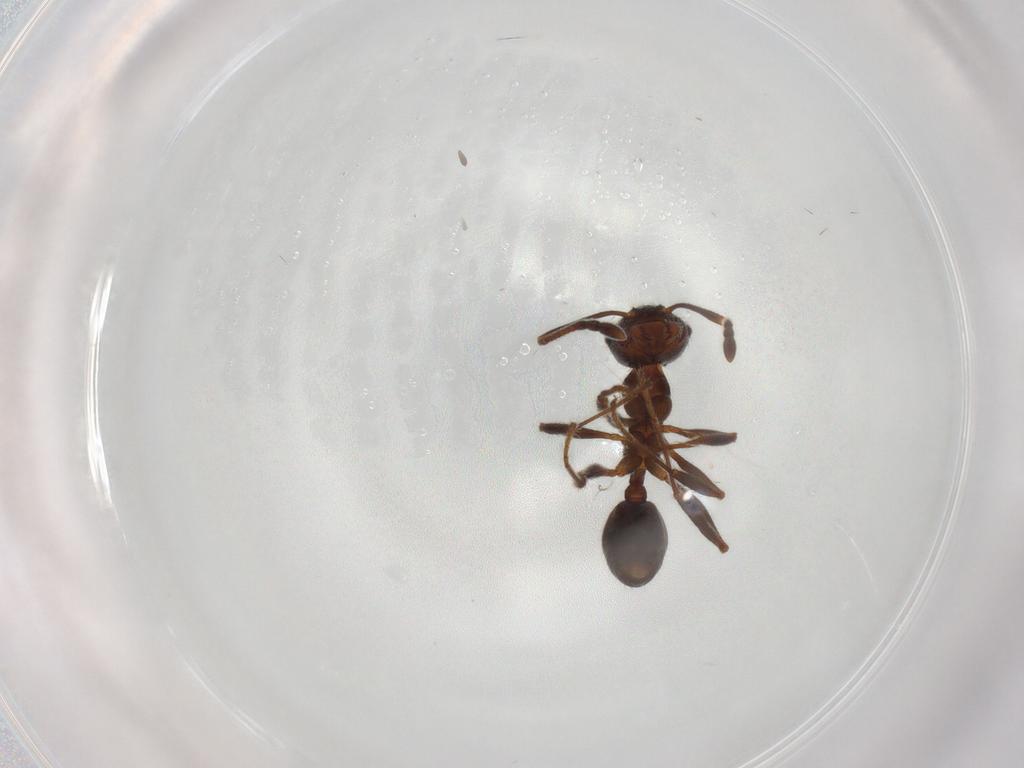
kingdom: Animalia
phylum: Arthropoda
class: Insecta
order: Hymenoptera
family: Formicidae
